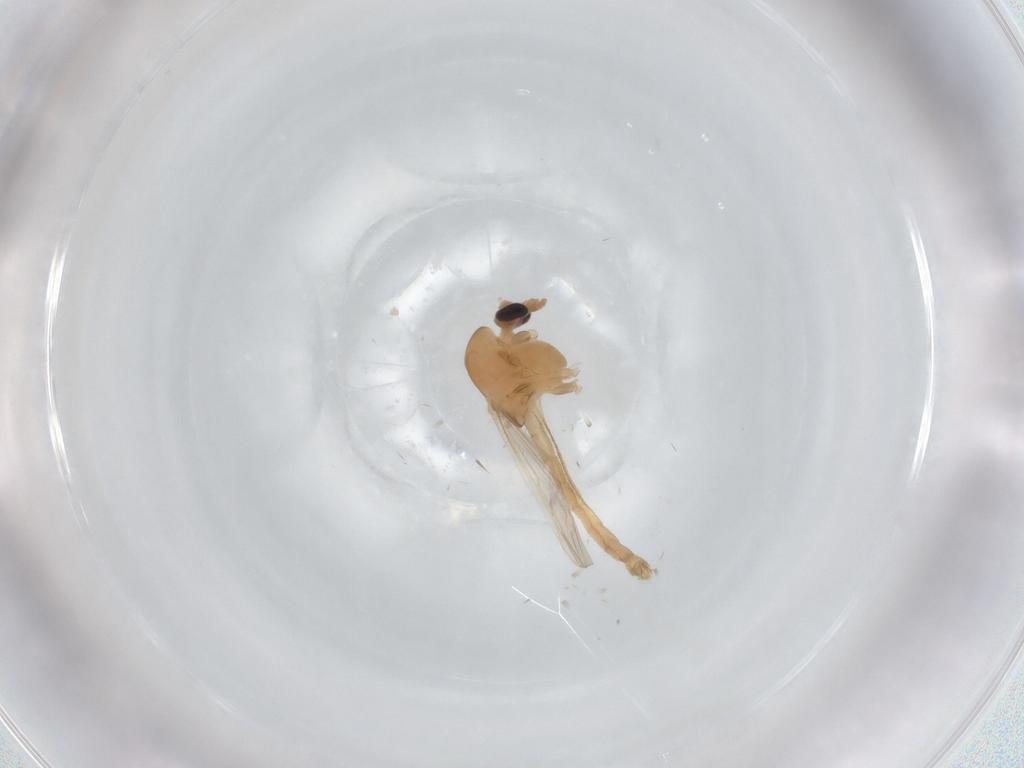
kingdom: Animalia
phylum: Arthropoda
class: Insecta
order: Diptera
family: Chironomidae
